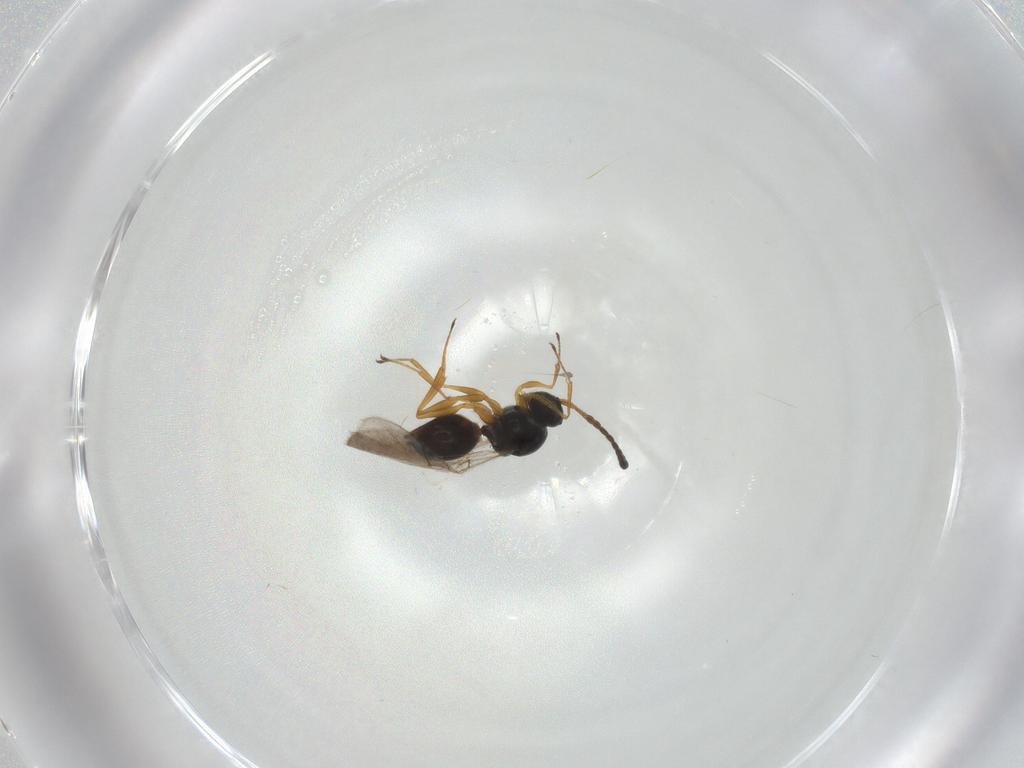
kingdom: Animalia
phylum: Arthropoda
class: Insecta
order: Hymenoptera
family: Figitidae
